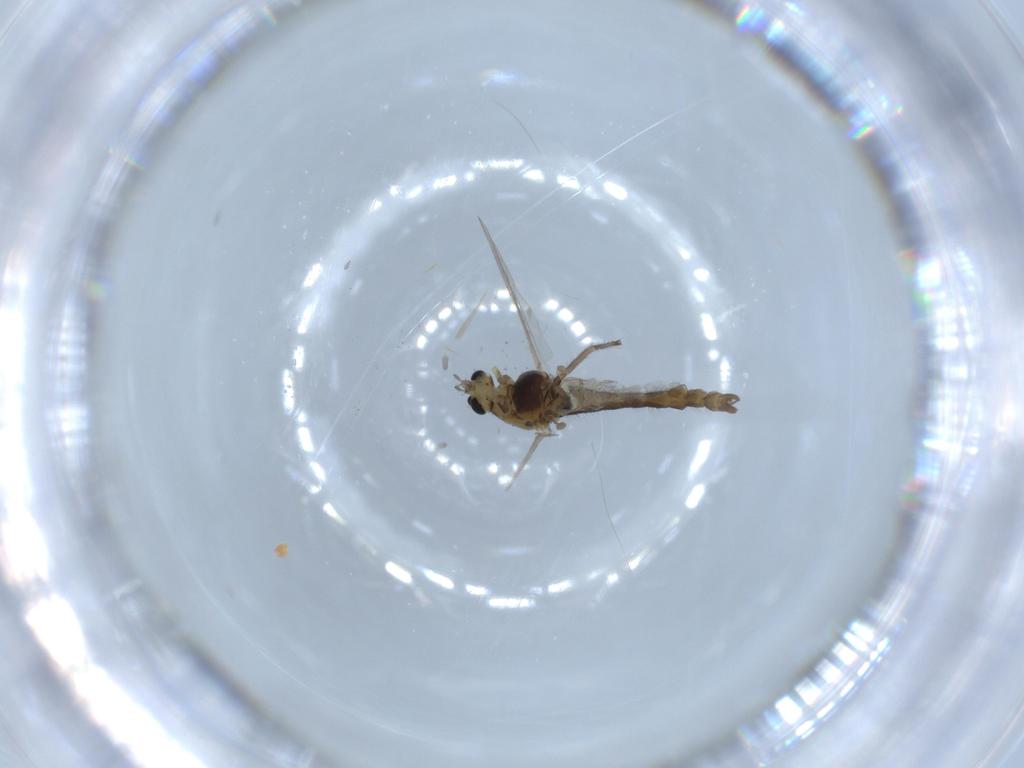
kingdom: Animalia
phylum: Arthropoda
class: Insecta
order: Diptera
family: Chironomidae
